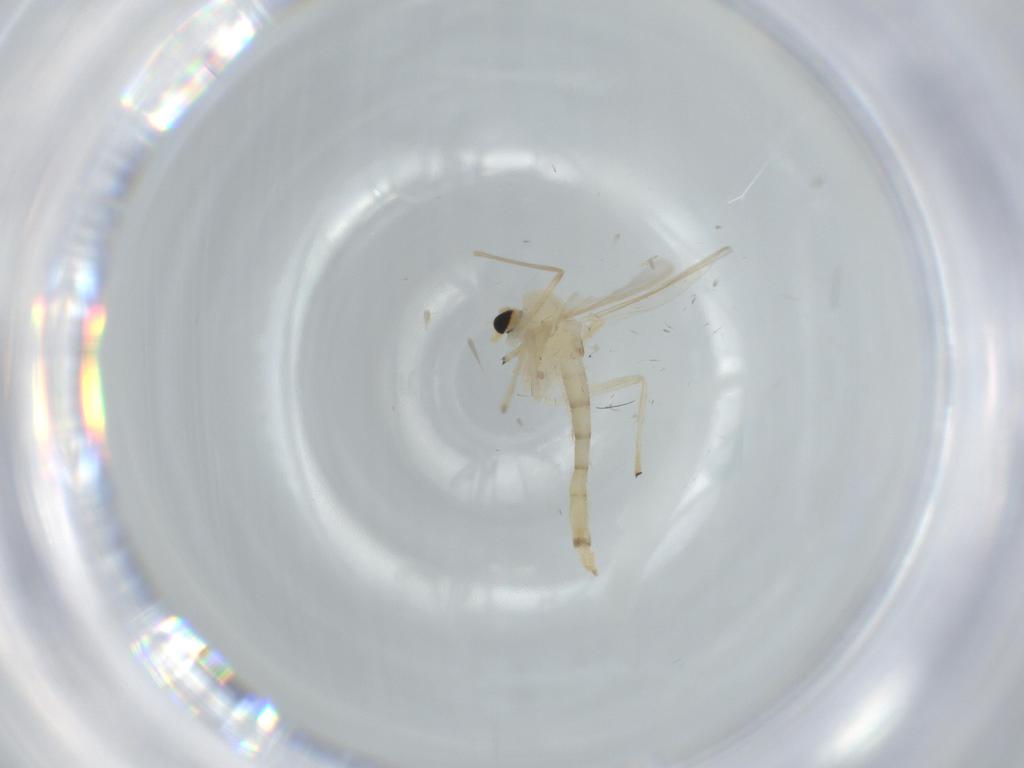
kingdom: Animalia
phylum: Arthropoda
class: Insecta
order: Diptera
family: Chironomidae
